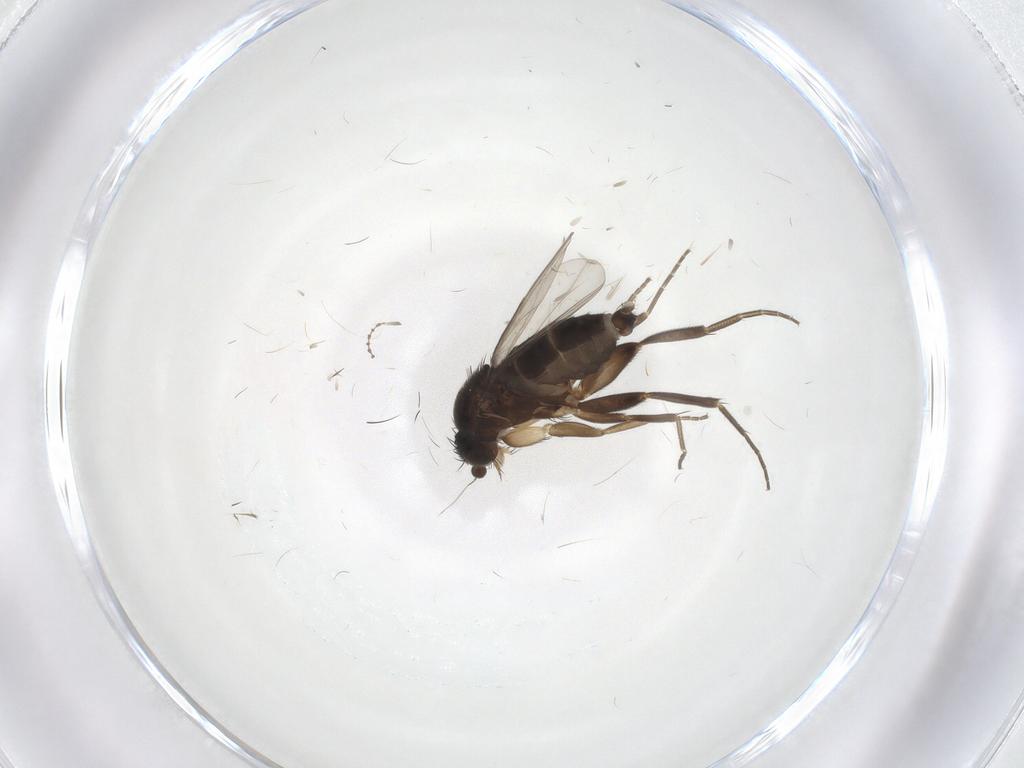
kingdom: Animalia
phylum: Arthropoda
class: Insecta
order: Diptera
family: Phoridae
